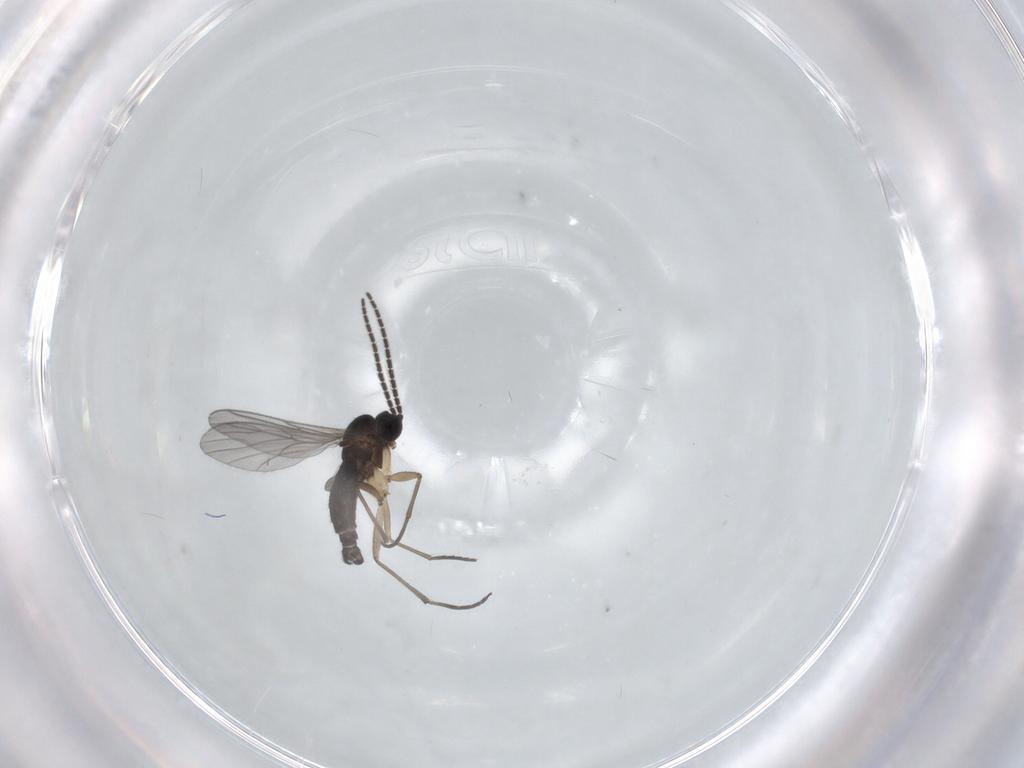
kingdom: Animalia
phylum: Arthropoda
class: Insecta
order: Diptera
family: Sciaridae
